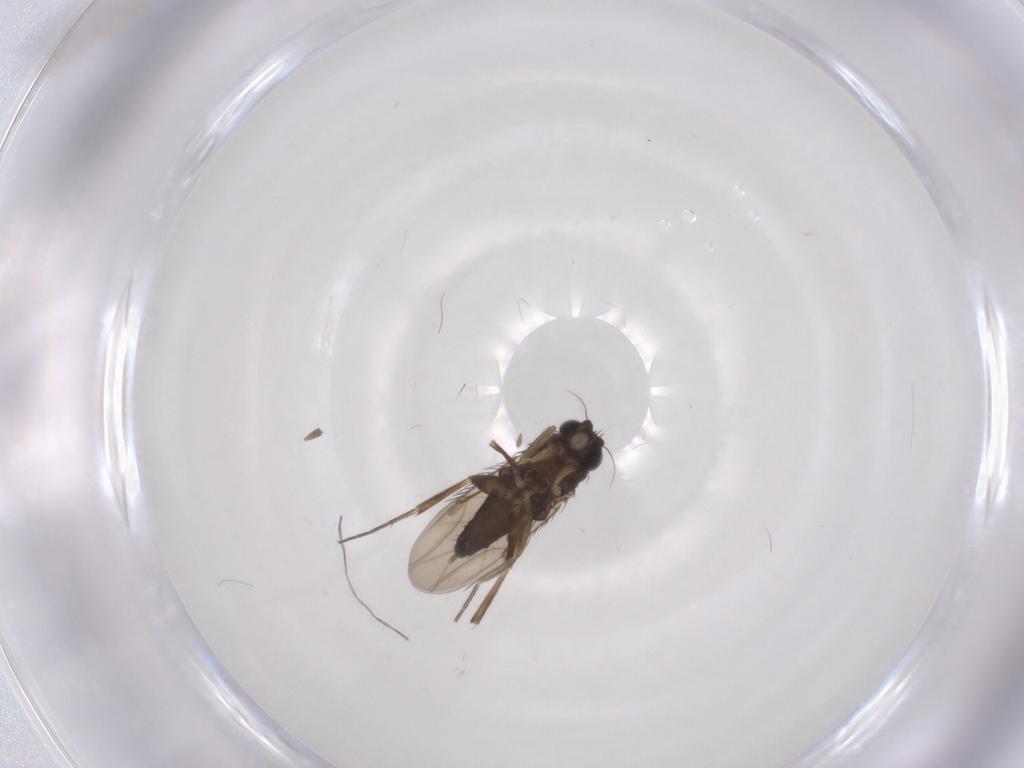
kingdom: Animalia
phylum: Arthropoda
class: Insecta
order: Diptera
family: Phoridae
